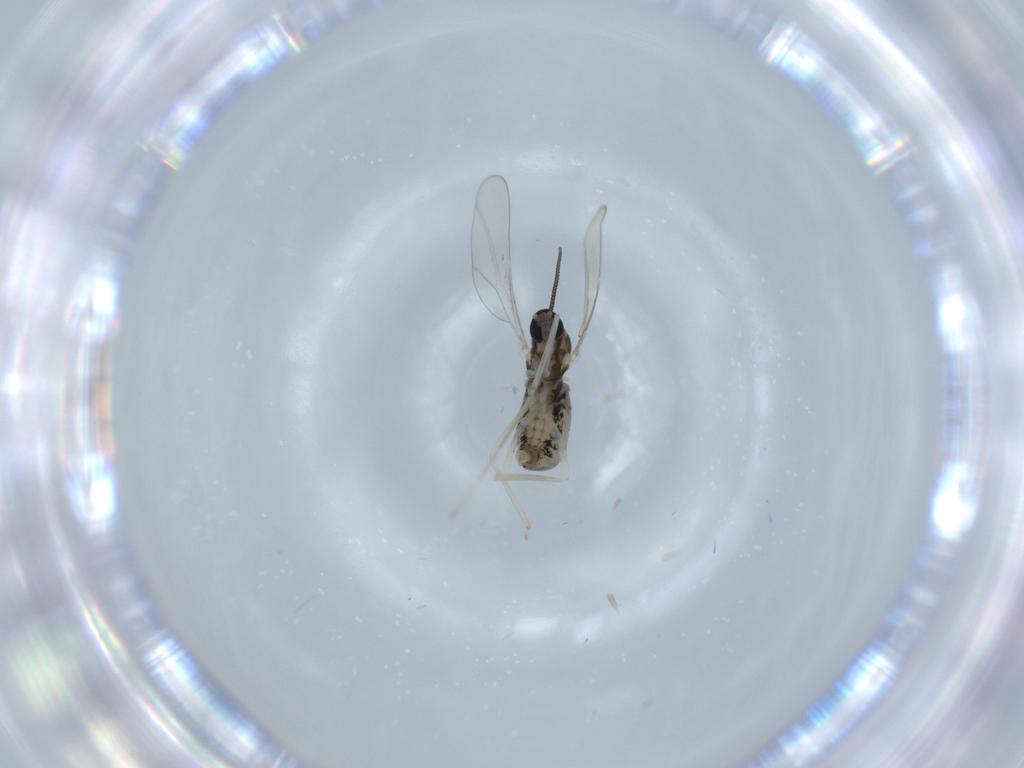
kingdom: Animalia
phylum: Arthropoda
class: Insecta
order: Diptera
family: Simuliidae
